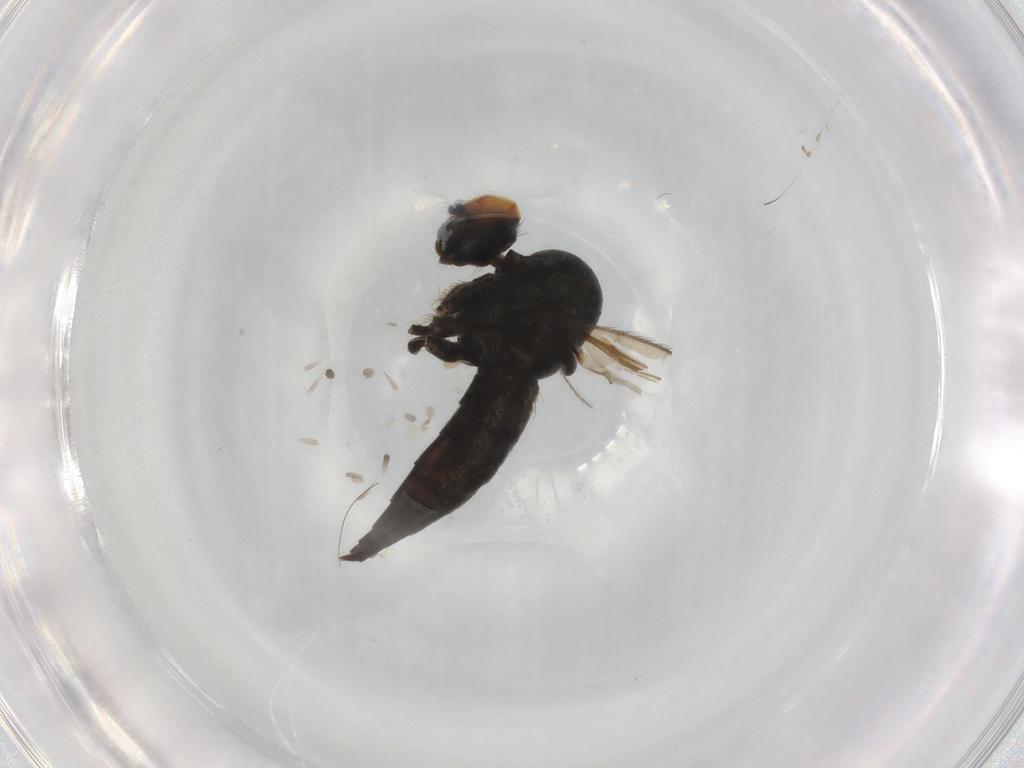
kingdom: Animalia
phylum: Arthropoda
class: Insecta
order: Diptera
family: Hybotidae
